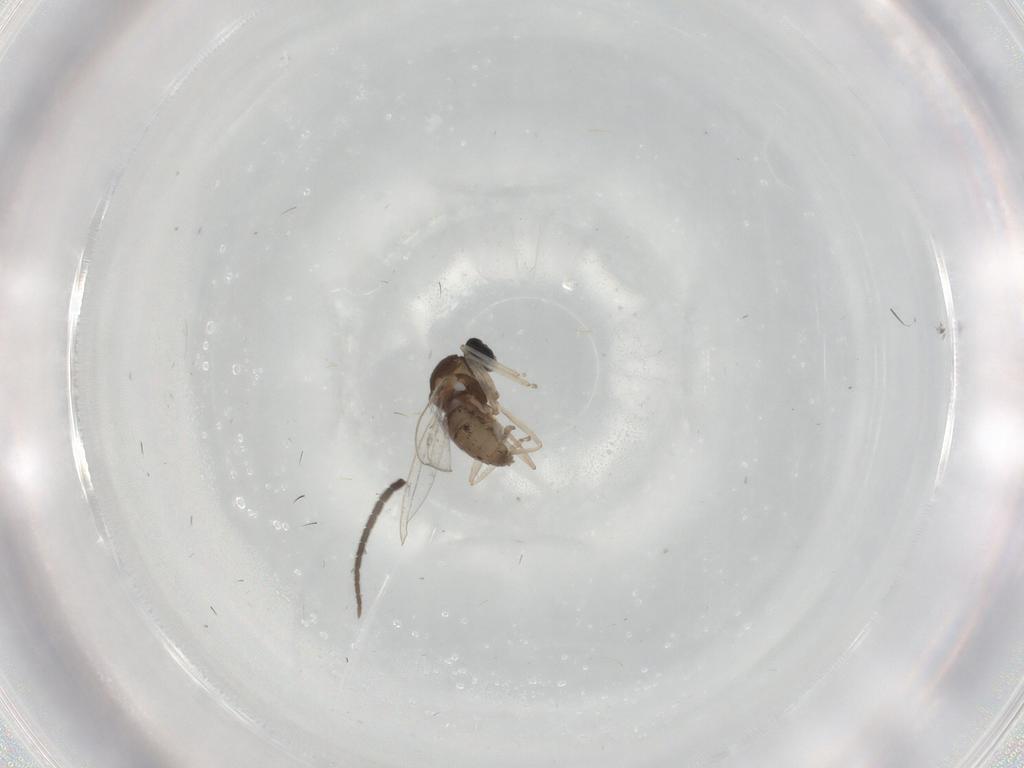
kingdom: Animalia
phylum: Arthropoda
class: Insecta
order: Diptera
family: Cecidomyiidae
